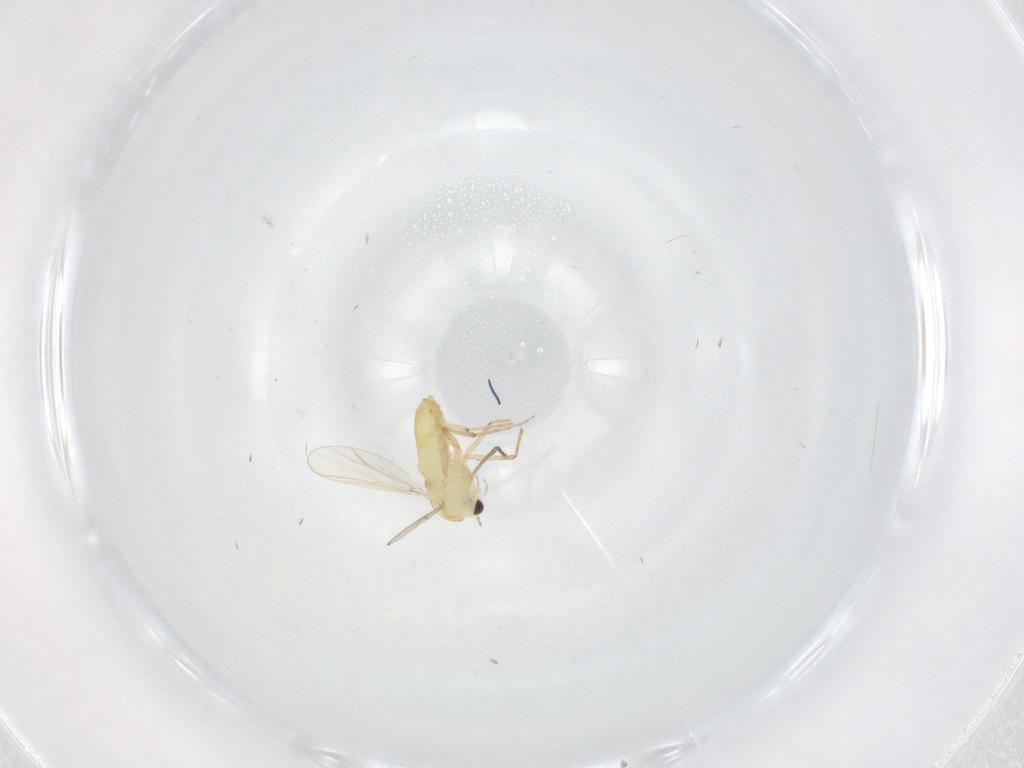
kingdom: Animalia
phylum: Arthropoda
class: Insecta
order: Diptera
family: Chironomidae
